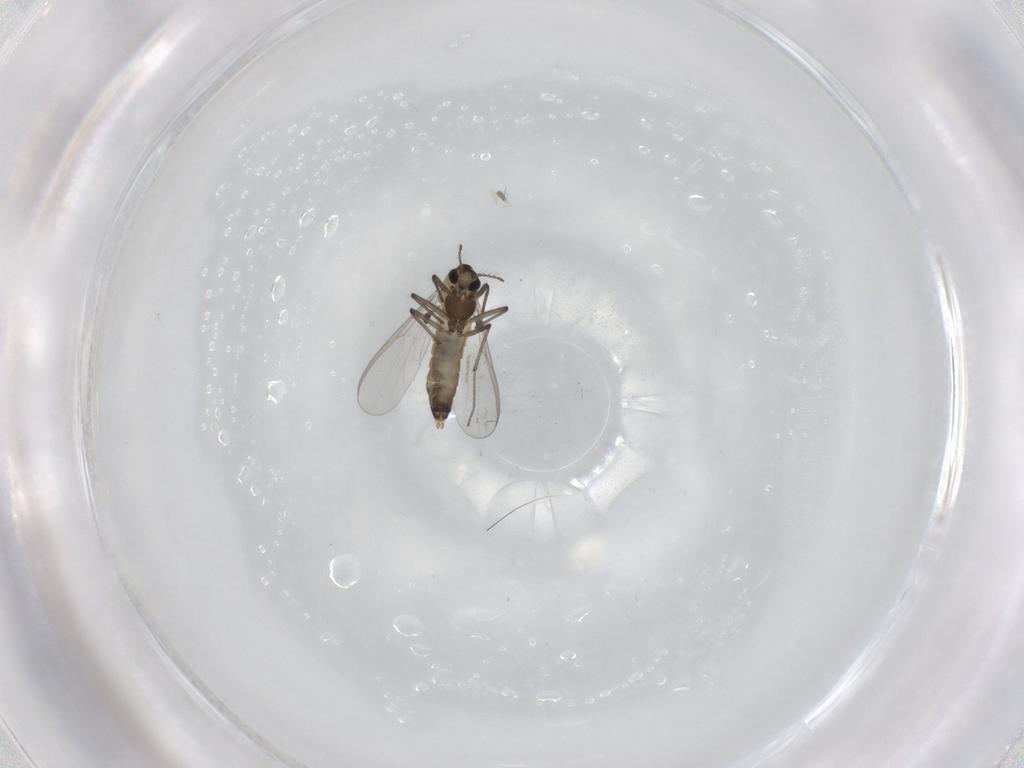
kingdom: Animalia
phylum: Arthropoda
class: Insecta
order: Diptera
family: Chironomidae
